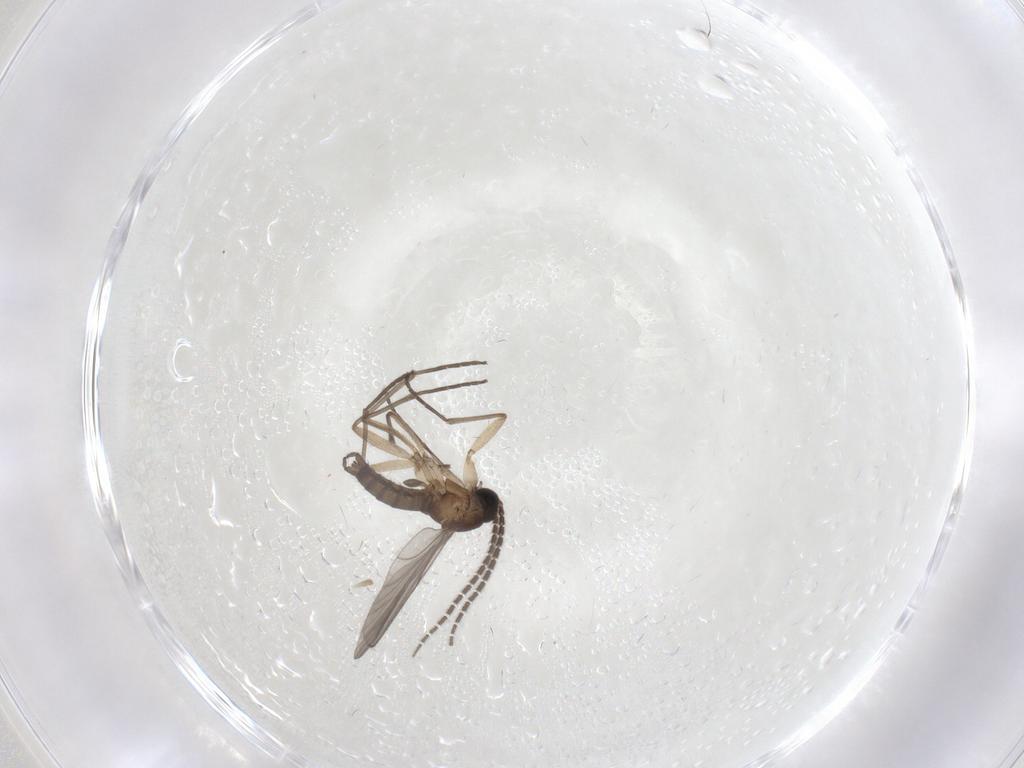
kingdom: Animalia
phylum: Arthropoda
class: Insecta
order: Diptera
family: Sciaridae
